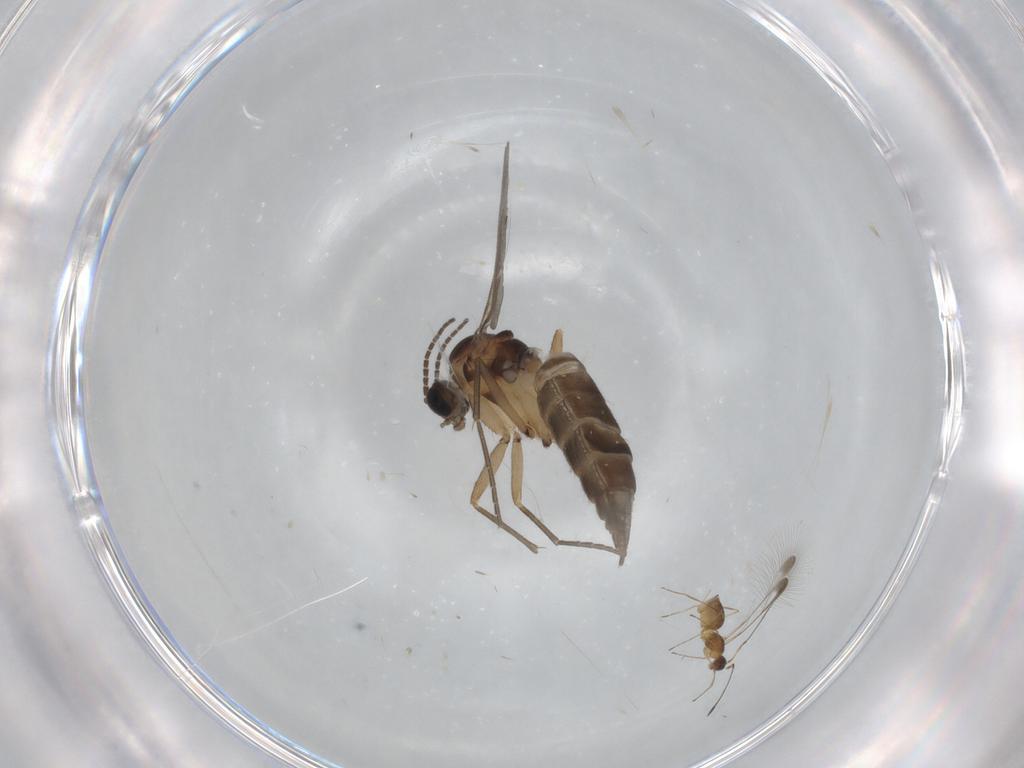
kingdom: Animalia
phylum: Arthropoda
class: Insecta
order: Diptera
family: Sciaridae
